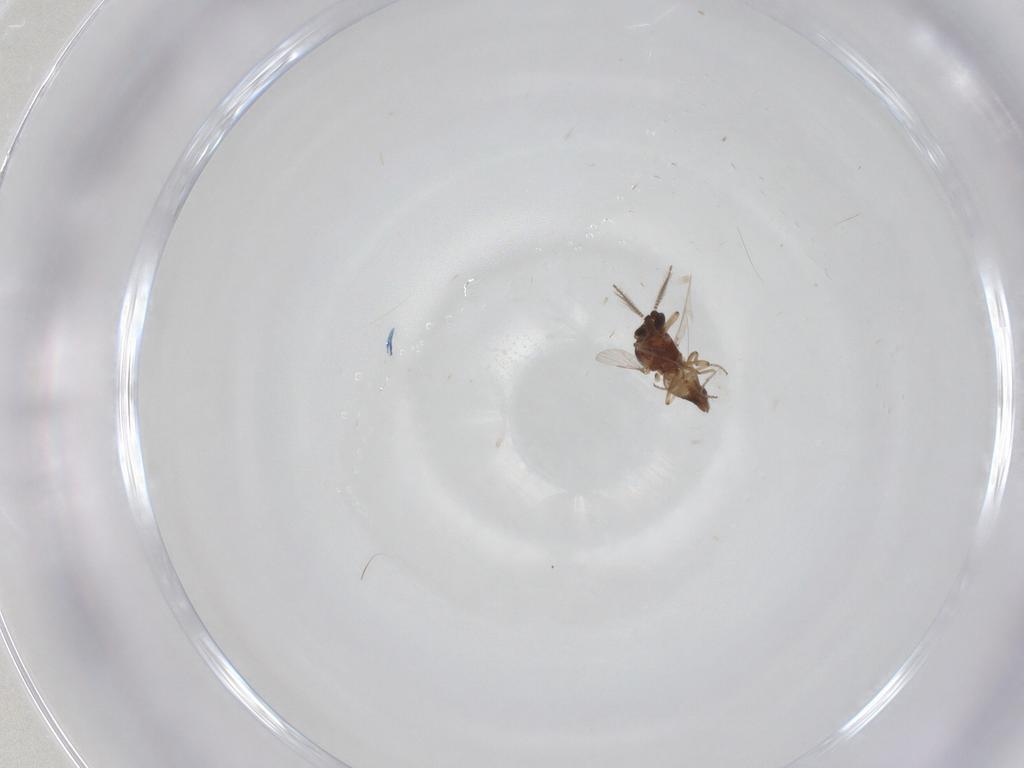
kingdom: Animalia
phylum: Arthropoda
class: Insecta
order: Diptera
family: Ceratopogonidae
